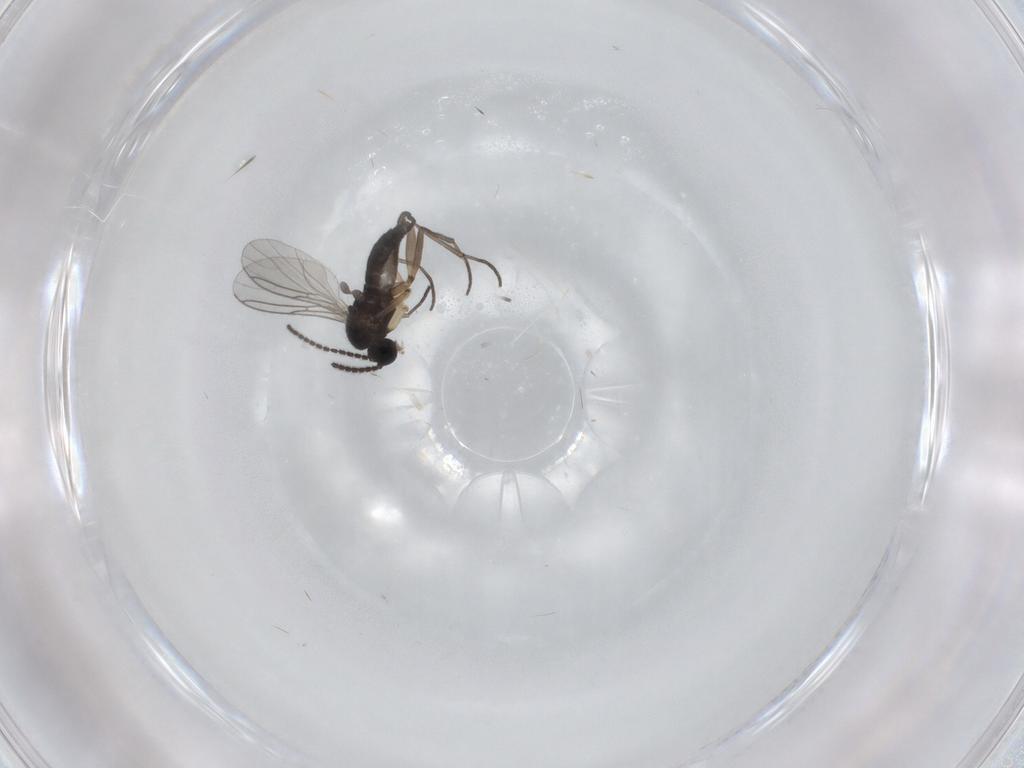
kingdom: Animalia
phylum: Arthropoda
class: Insecta
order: Diptera
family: Sciaridae
